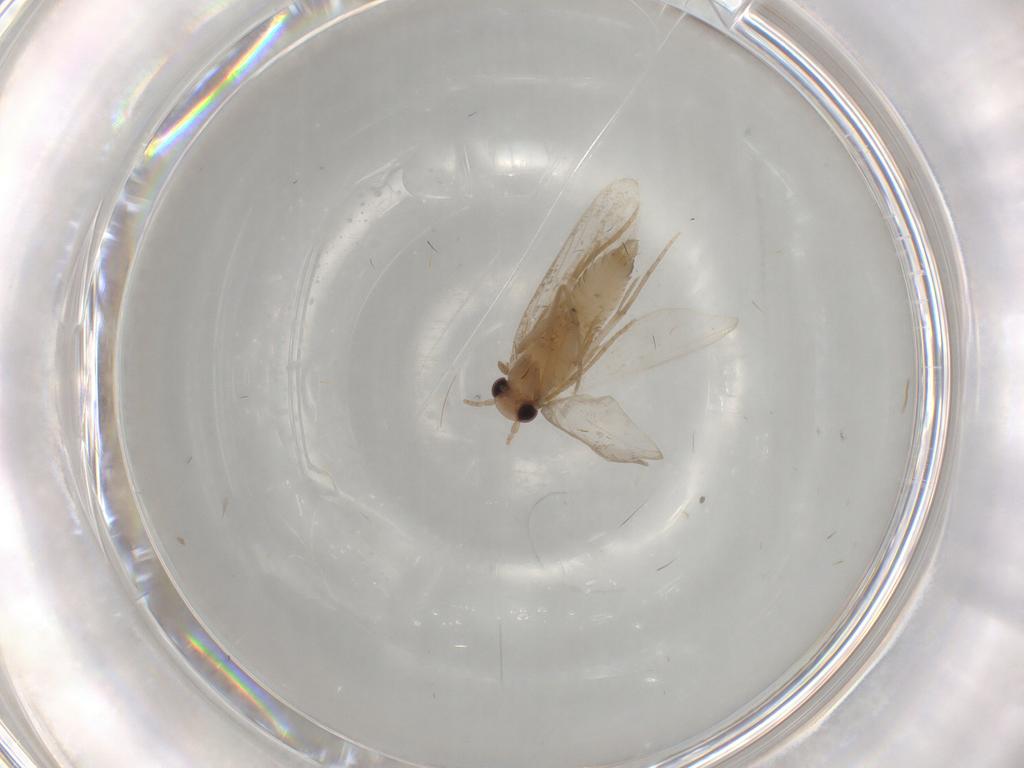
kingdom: Animalia
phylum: Arthropoda
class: Insecta
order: Lepidoptera
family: Psychidae
